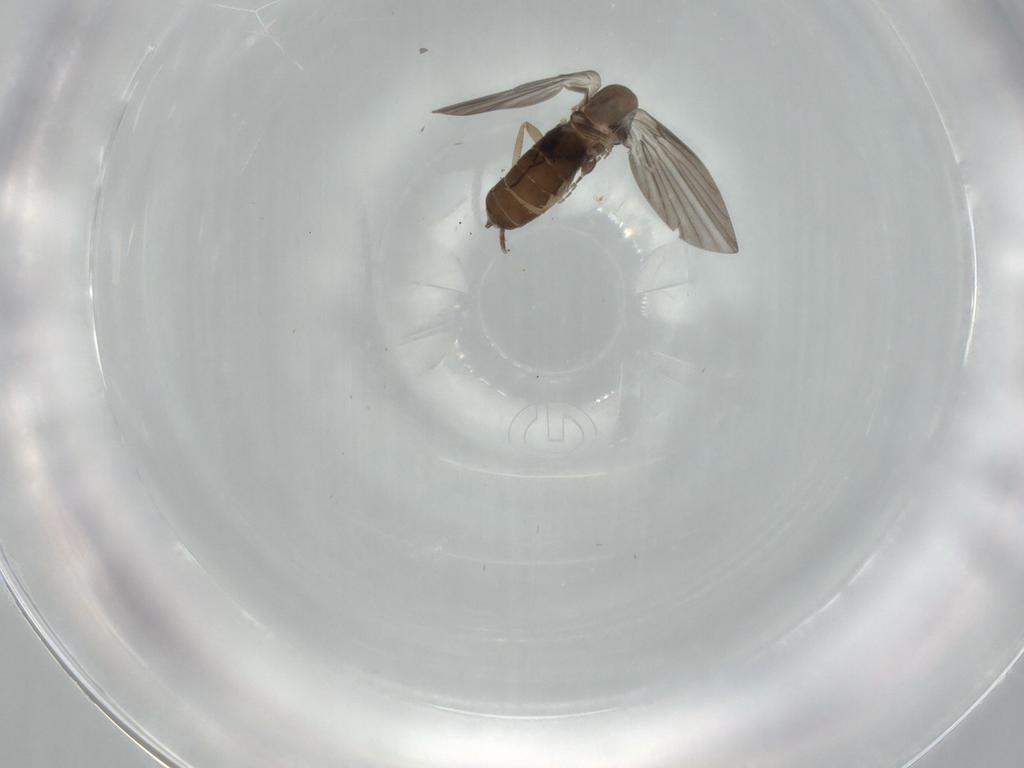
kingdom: Animalia
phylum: Arthropoda
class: Insecta
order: Diptera
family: Psychodidae
